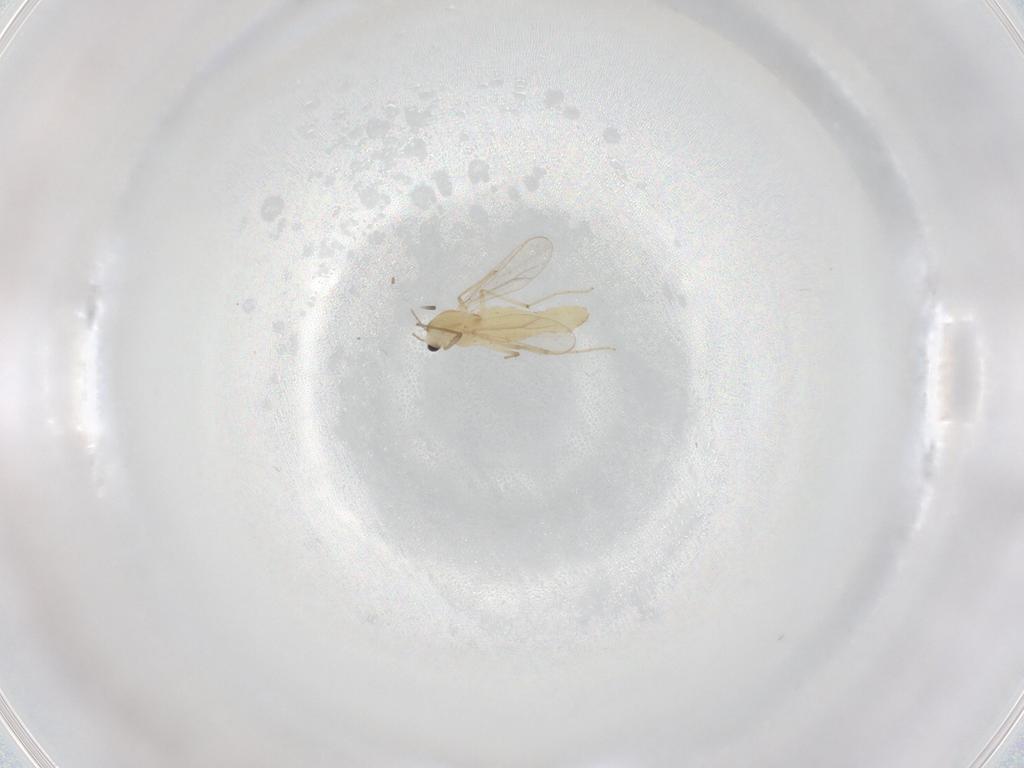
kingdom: Animalia
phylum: Arthropoda
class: Insecta
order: Diptera
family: Chironomidae
